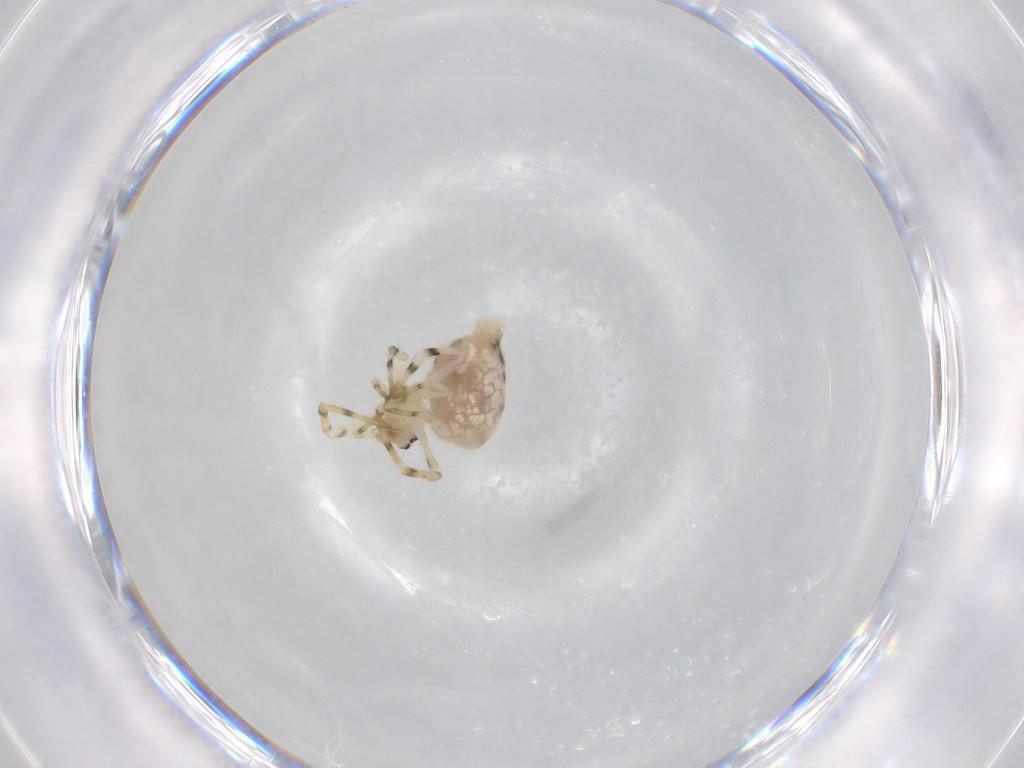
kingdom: Animalia
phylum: Arthropoda
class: Arachnida
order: Araneae
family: Uloboridae
